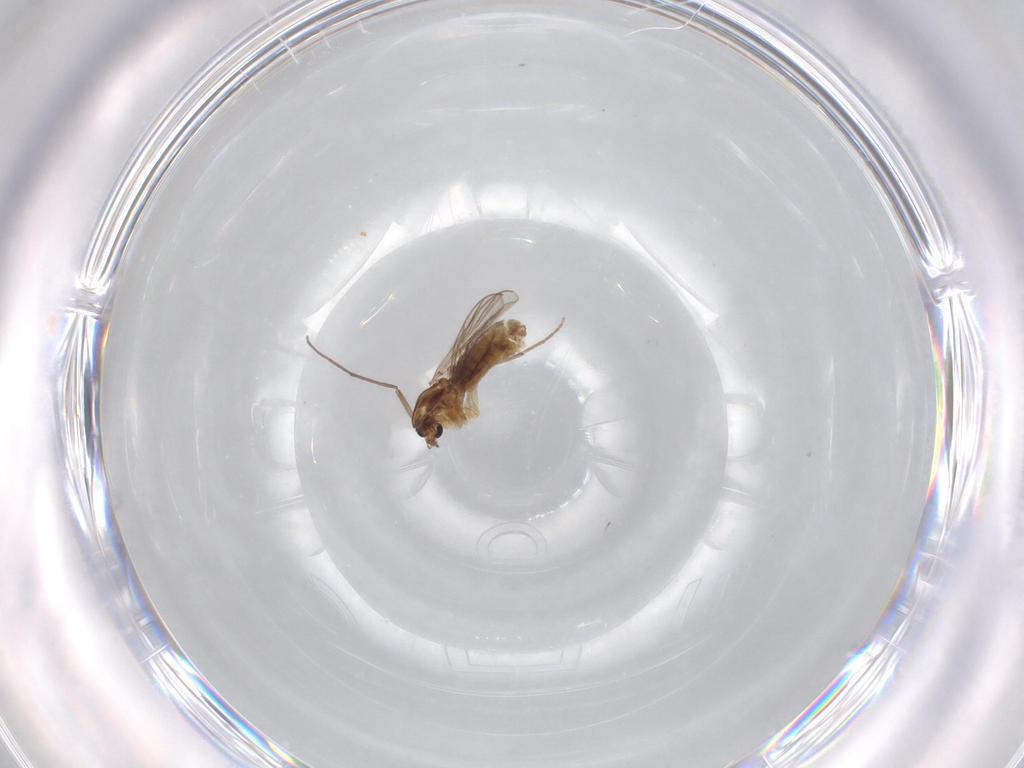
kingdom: Animalia
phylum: Arthropoda
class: Insecta
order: Diptera
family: Chironomidae
